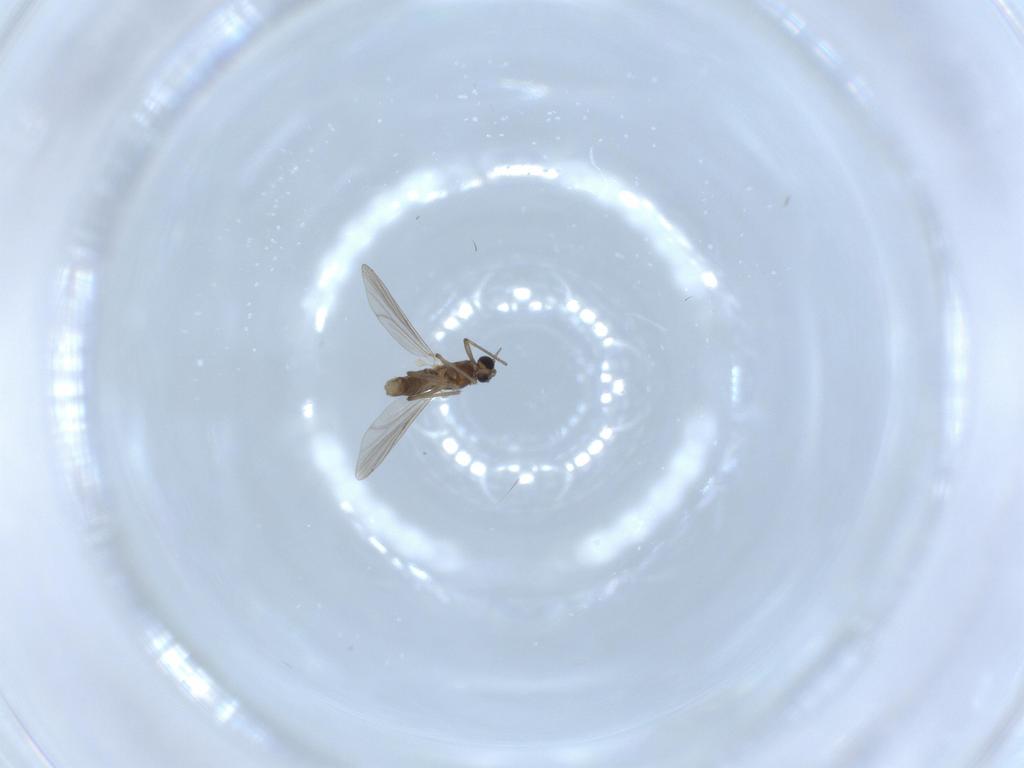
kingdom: Animalia
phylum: Arthropoda
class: Insecta
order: Diptera
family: Chironomidae
